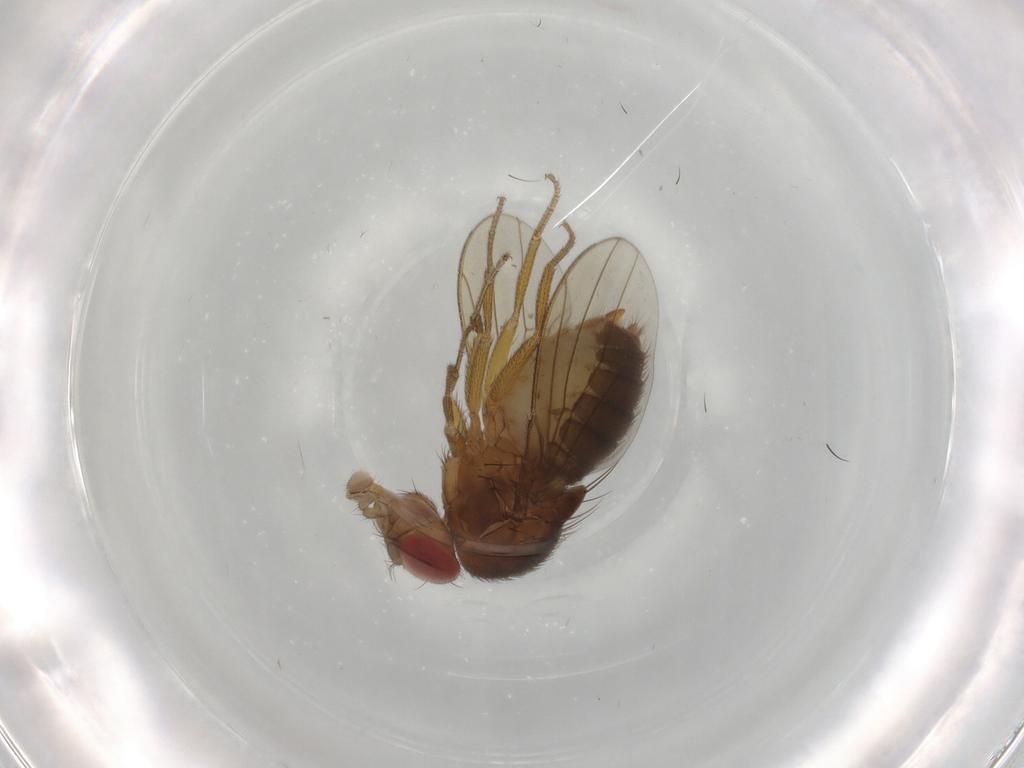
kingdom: Animalia
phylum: Arthropoda
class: Insecta
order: Diptera
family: Drosophilidae
